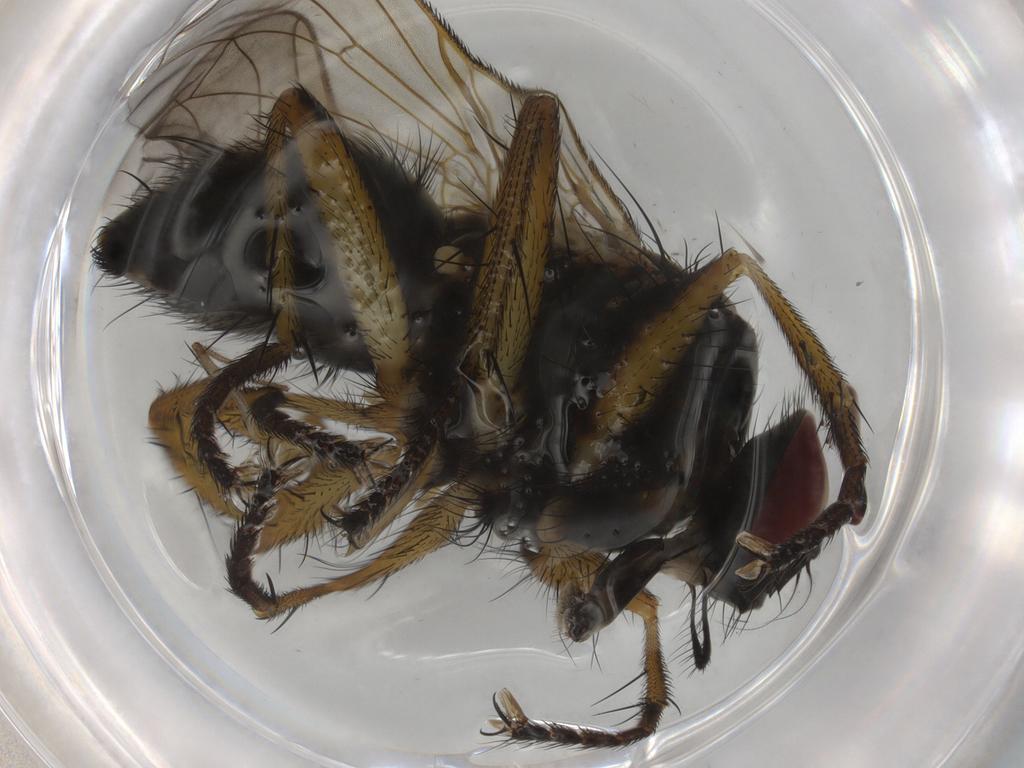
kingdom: Animalia
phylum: Arthropoda
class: Insecta
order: Diptera
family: Muscidae
